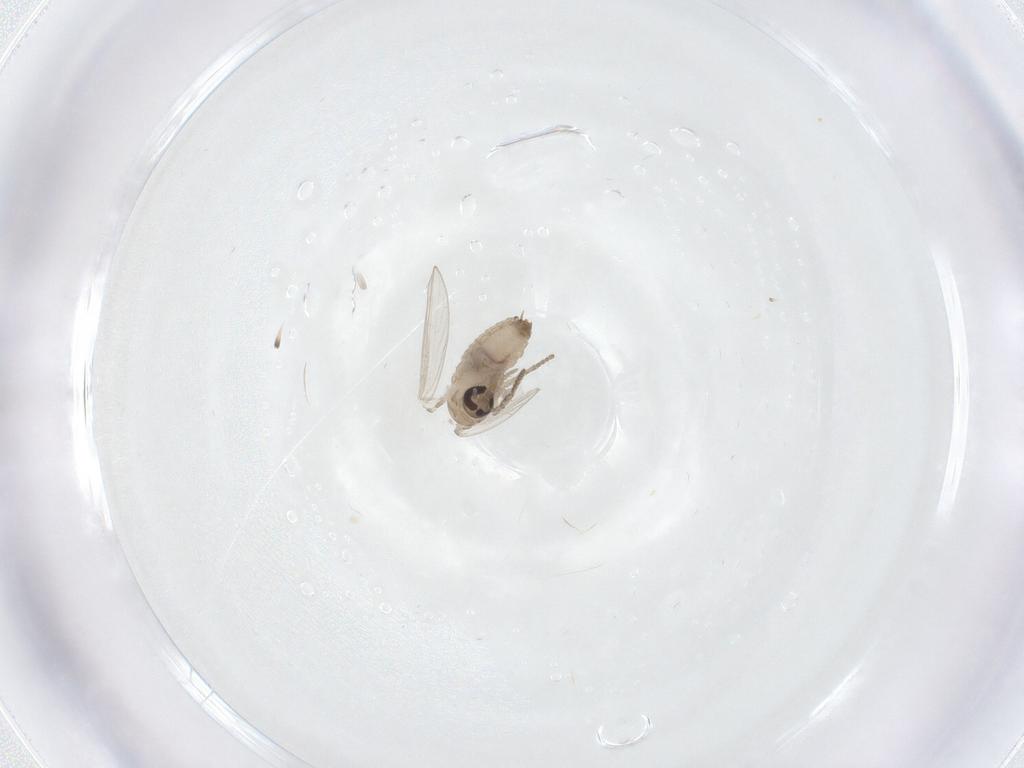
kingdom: Animalia
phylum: Arthropoda
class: Insecta
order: Diptera
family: Psychodidae
